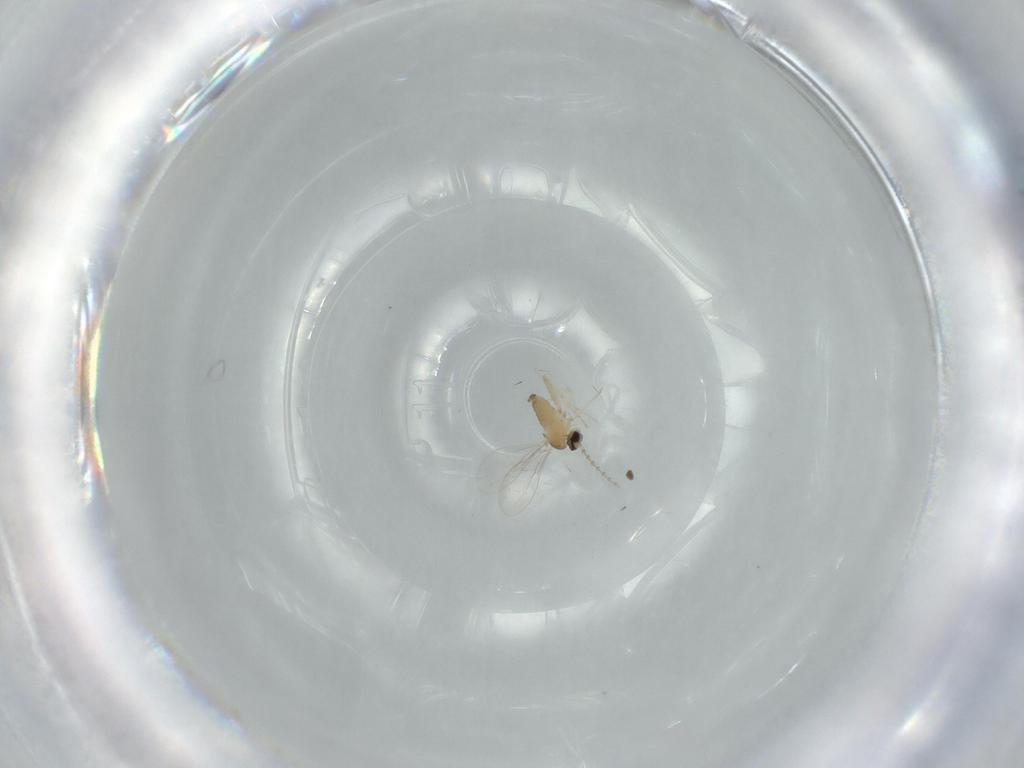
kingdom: Animalia
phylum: Arthropoda
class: Insecta
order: Diptera
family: Cecidomyiidae
